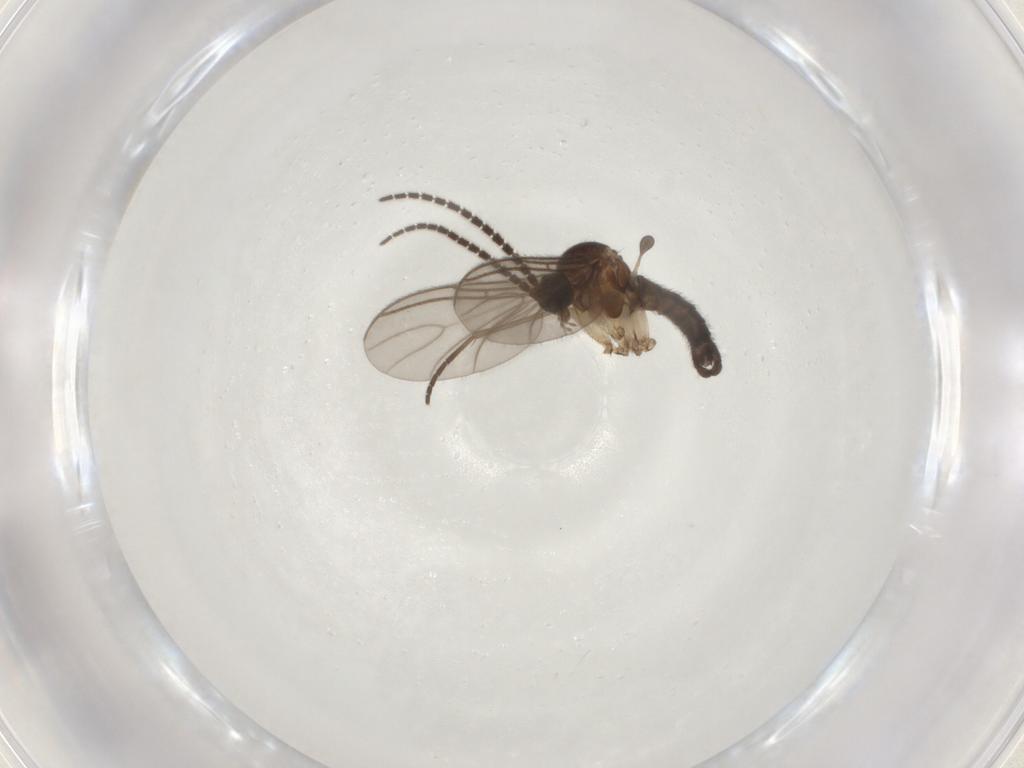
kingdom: Animalia
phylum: Arthropoda
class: Insecta
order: Diptera
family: Sciaridae
